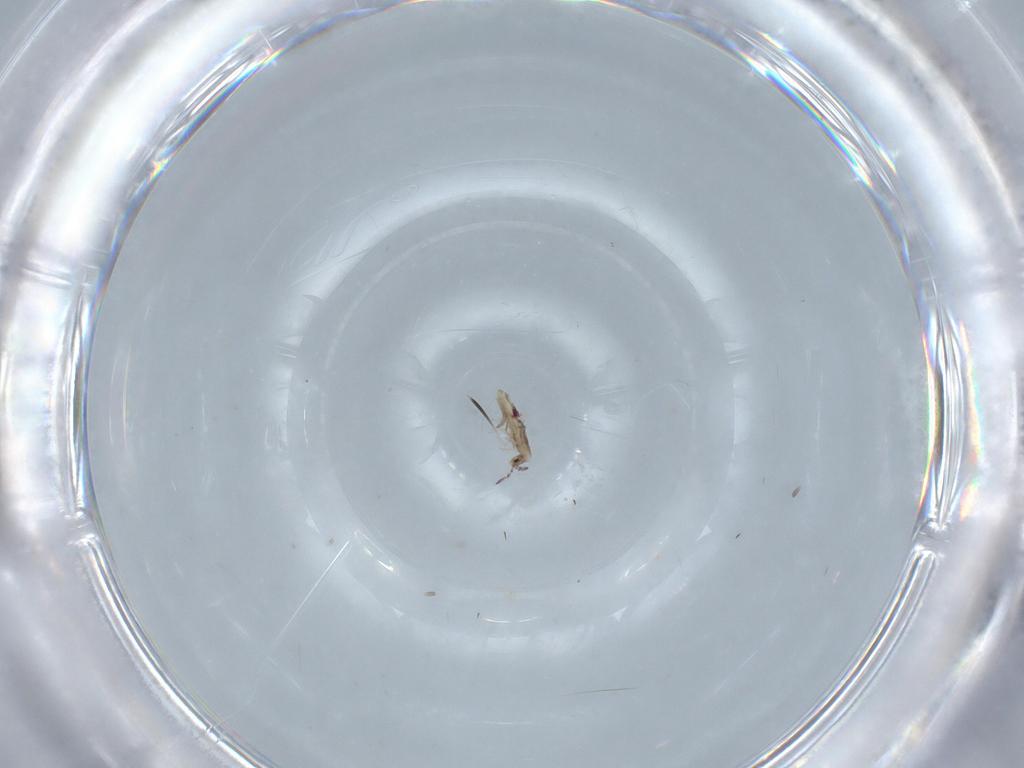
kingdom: Animalia
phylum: Arthropoda
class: Collembola
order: Entomobryomorpha
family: Entomobryidae
